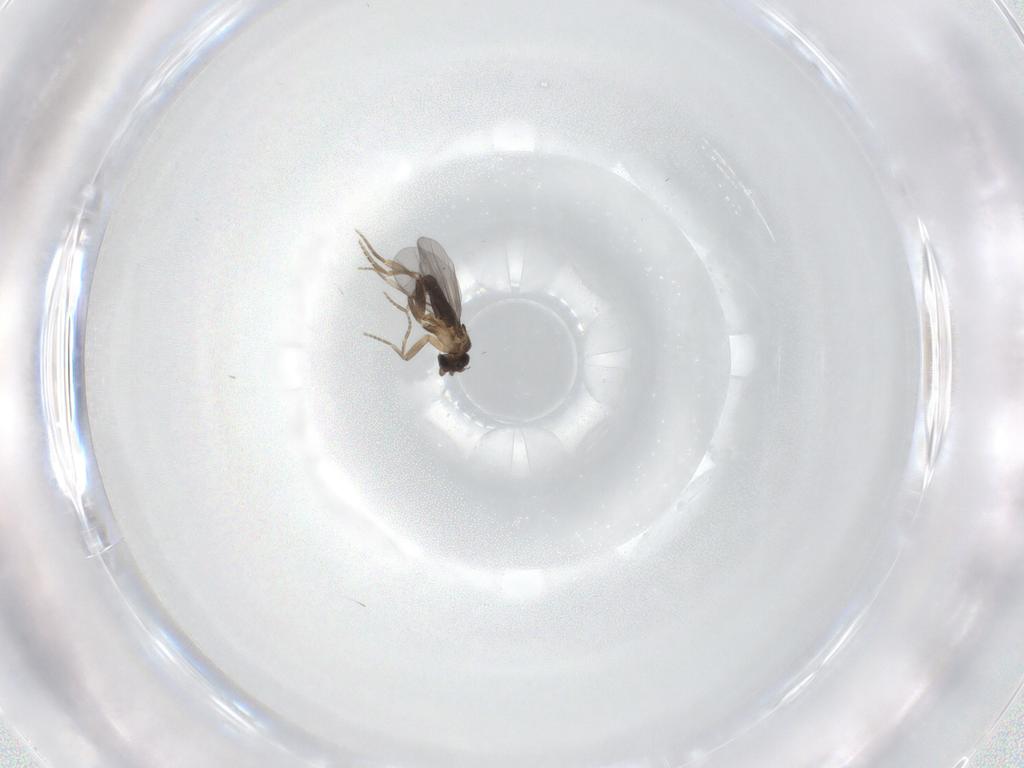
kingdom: Animalia
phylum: Arthropoda
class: Insecta
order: Diptera
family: Phoridae
